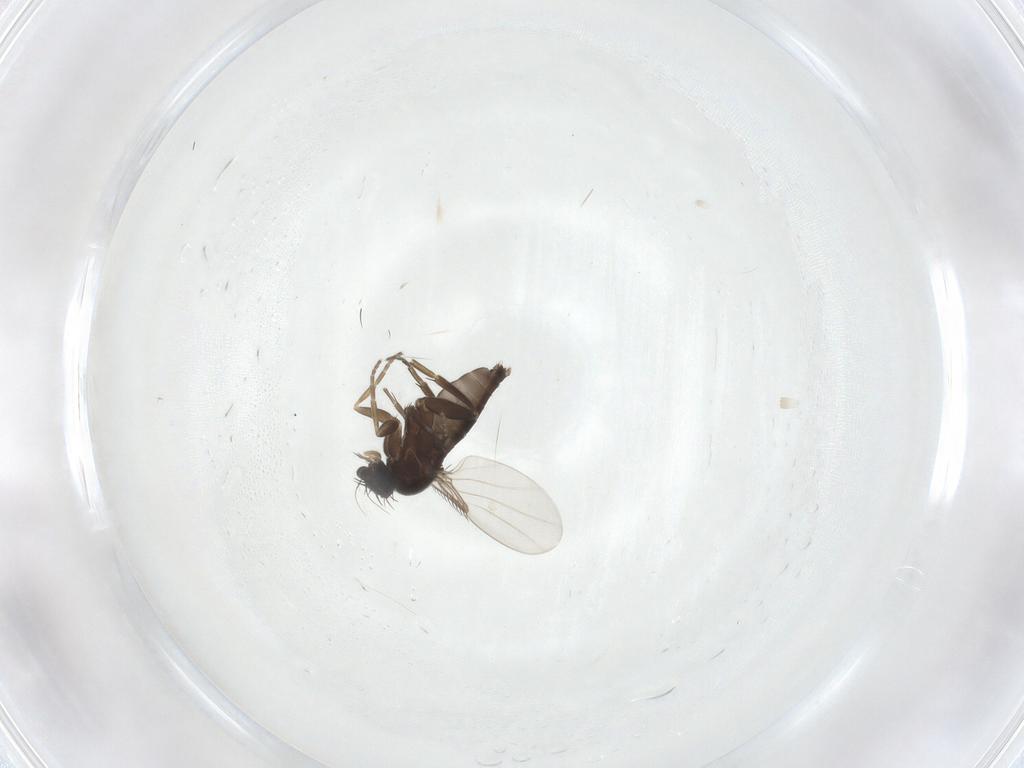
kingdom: Animalia
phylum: Arthropoda
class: Insecta
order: Diptera
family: Phoridae
